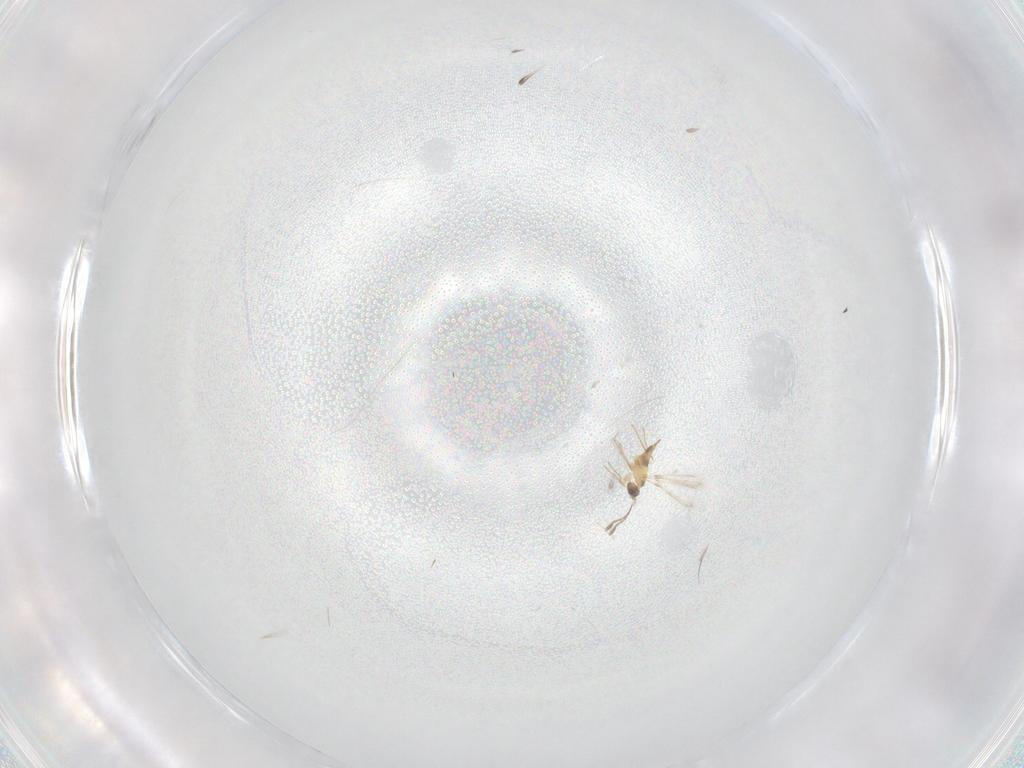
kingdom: Animalia
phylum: Arthropoda
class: Insecta
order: Hymenoptera
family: Mymaridae
